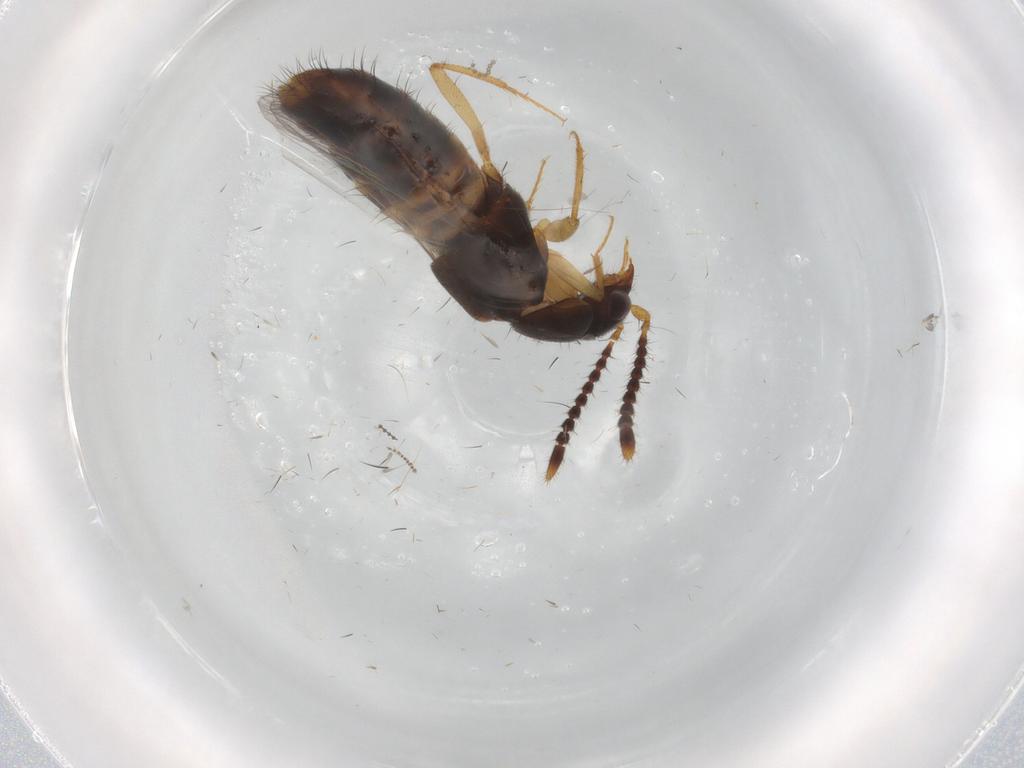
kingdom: Animalia
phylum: Arthropoda
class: Insecta
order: Coleoptera
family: Staphylinidae
